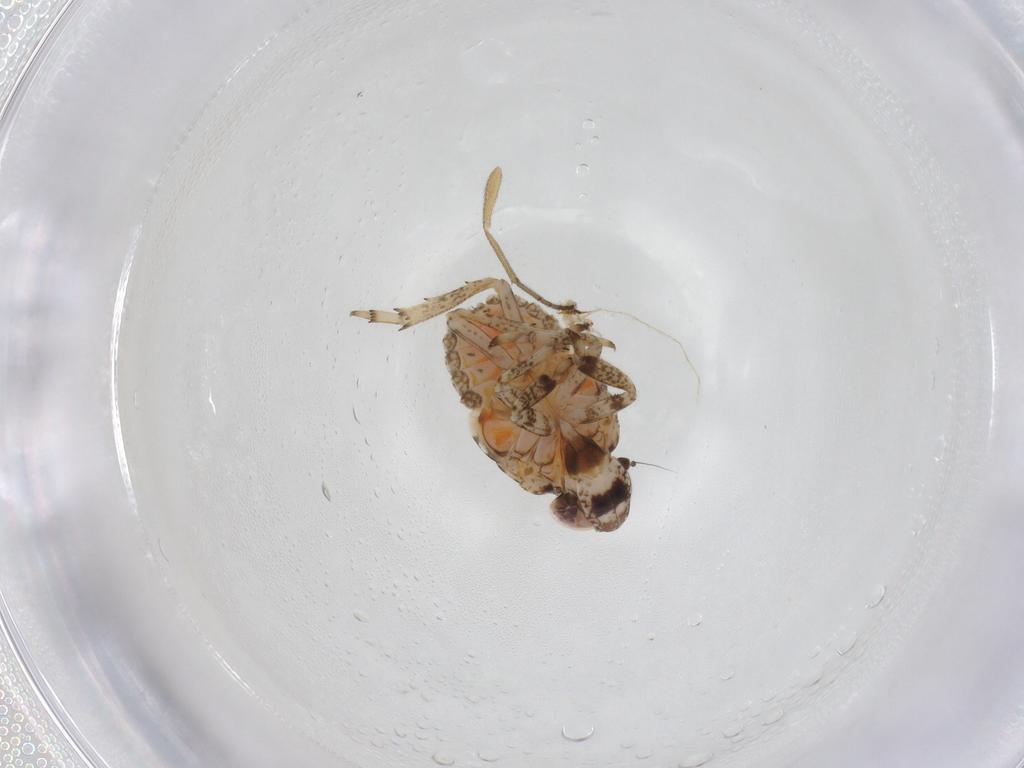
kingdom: Animalia
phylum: Arthropoda
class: Insecta
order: Hemiptera
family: Issidae
